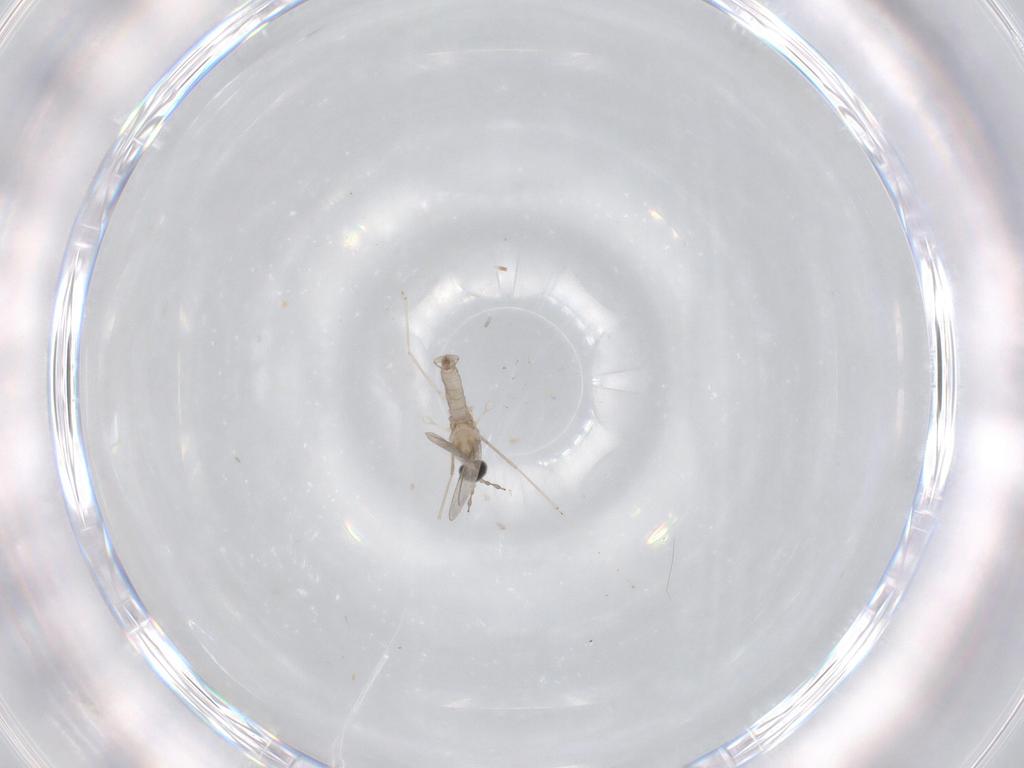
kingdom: Animalia
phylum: Arthropoda
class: Insecta
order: Diptera
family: Cecidomyiidae
